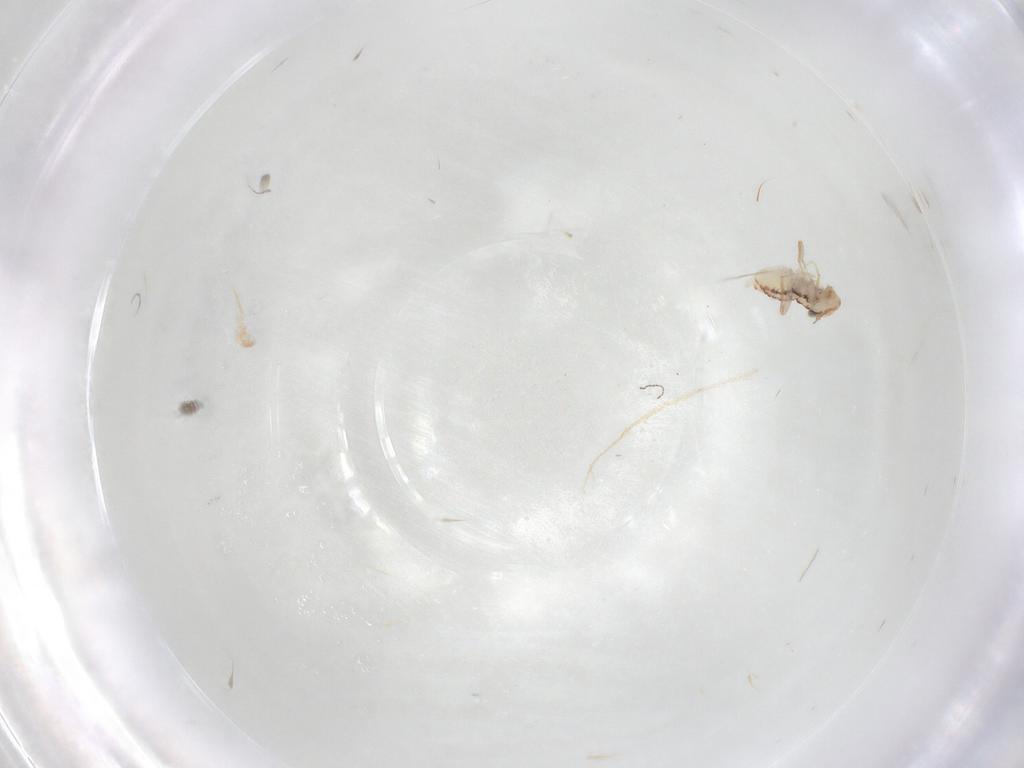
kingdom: Animalia
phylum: Arthropoda
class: Insecta
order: Psocodea
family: Lachesillidae
